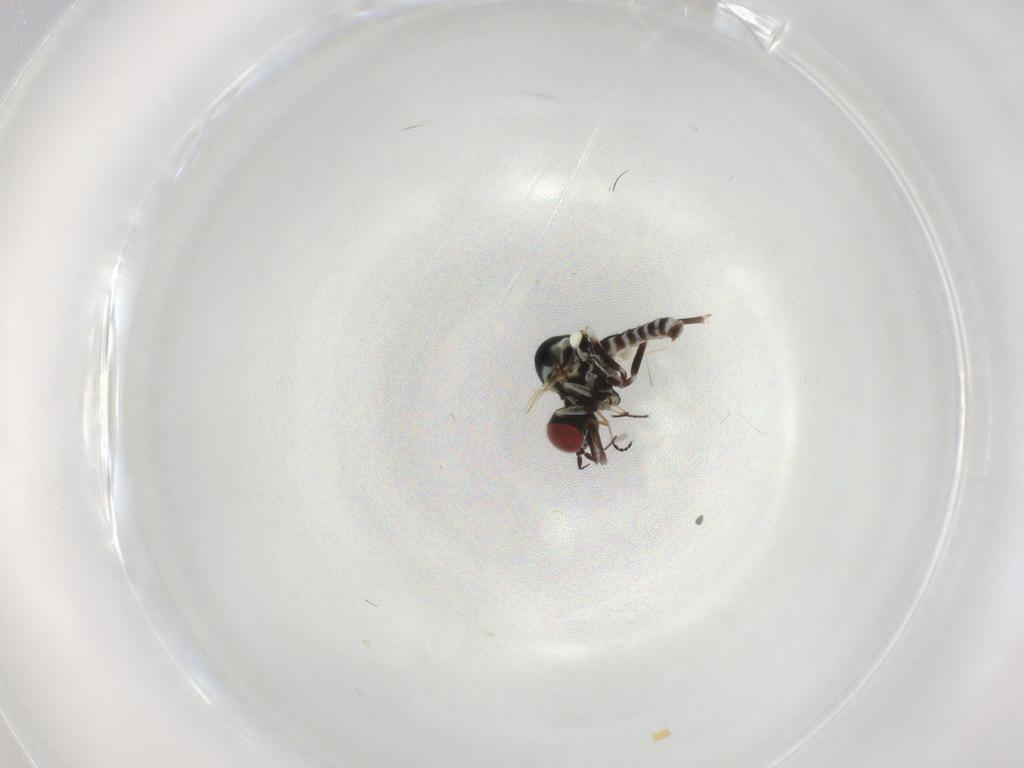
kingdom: Animalia
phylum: Arthropoda
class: Insecta
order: Diptera
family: Bombyliidae
